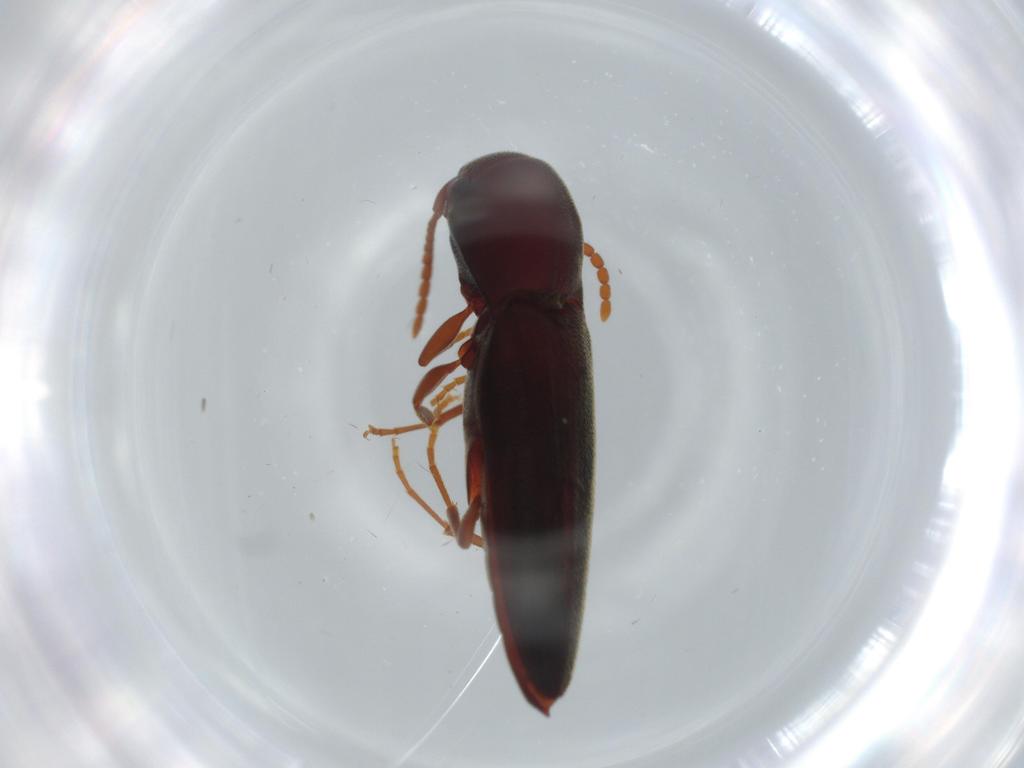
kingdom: Animalia
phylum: Arthropoda
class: Insecta
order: Coleoptera
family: Eucnemidae
